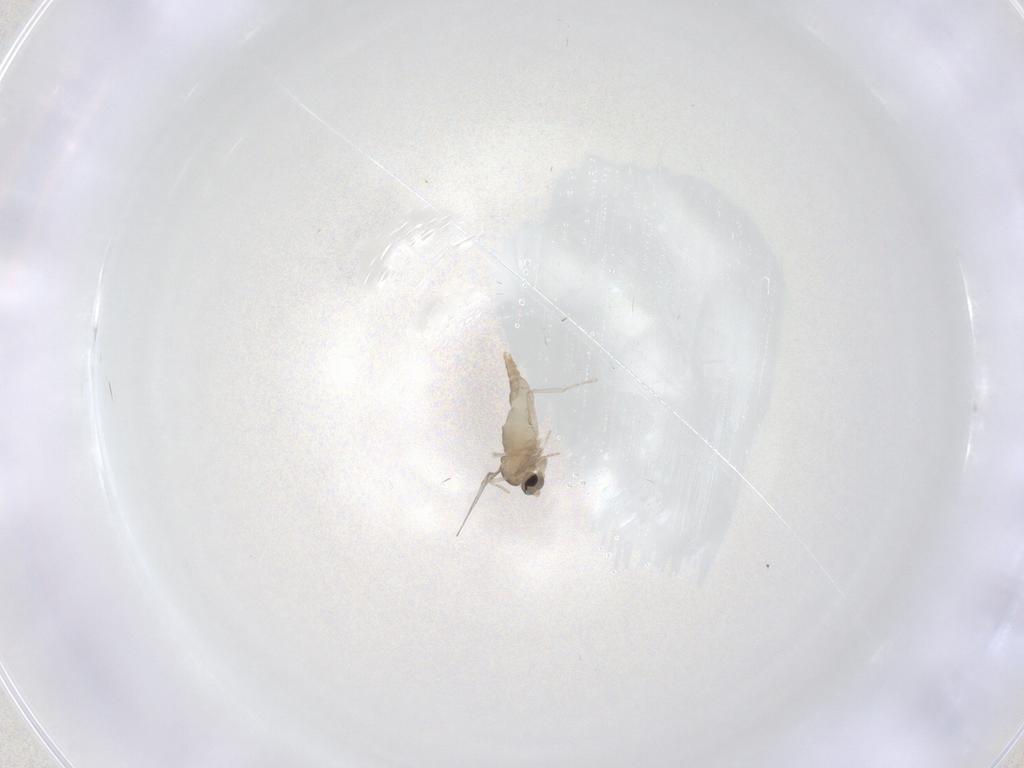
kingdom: Animalia
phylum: Arthropoda
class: Insecta
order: Diptera
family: Cecidomyiidae
